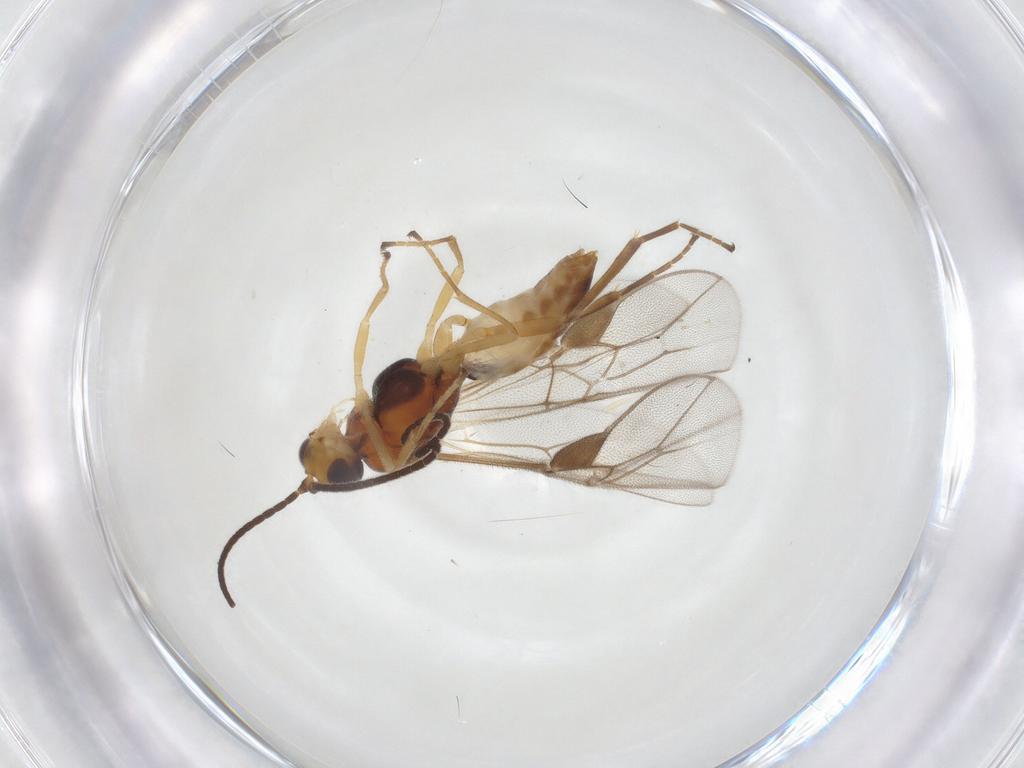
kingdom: Animalia
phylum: Arthropoda
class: Insecta
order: Hymenoptera
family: Braconidae
